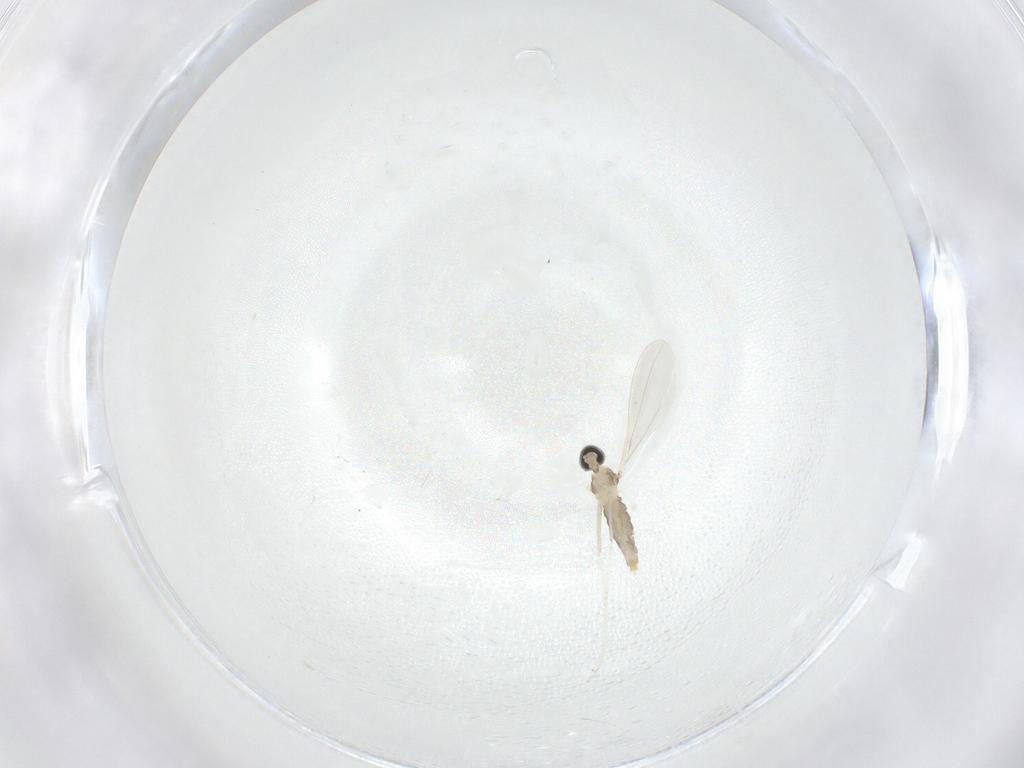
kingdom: Animalia
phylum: Arthropoda
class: Insecta
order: Diptera
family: Cecidomyiidae
